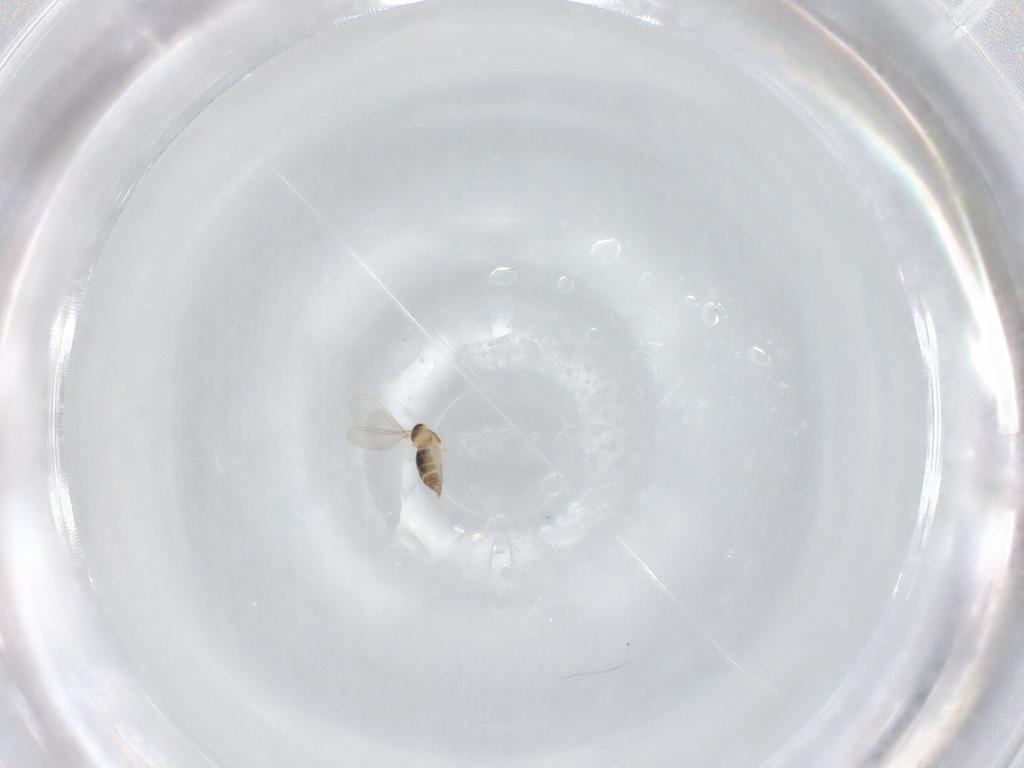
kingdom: Animalia
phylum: Arthropoda
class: Insecta
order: Diptera
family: Cecidomyiidae
